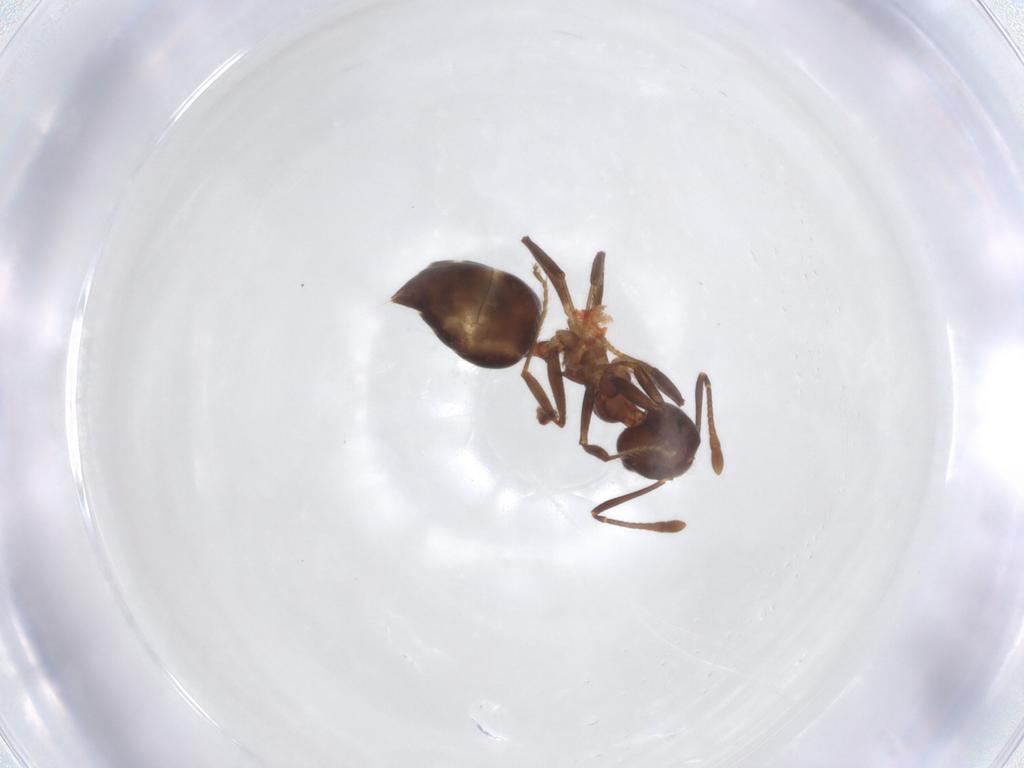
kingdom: Animalia
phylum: Arthropoda
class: Insecta
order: Hymenoptera
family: Formicidae
